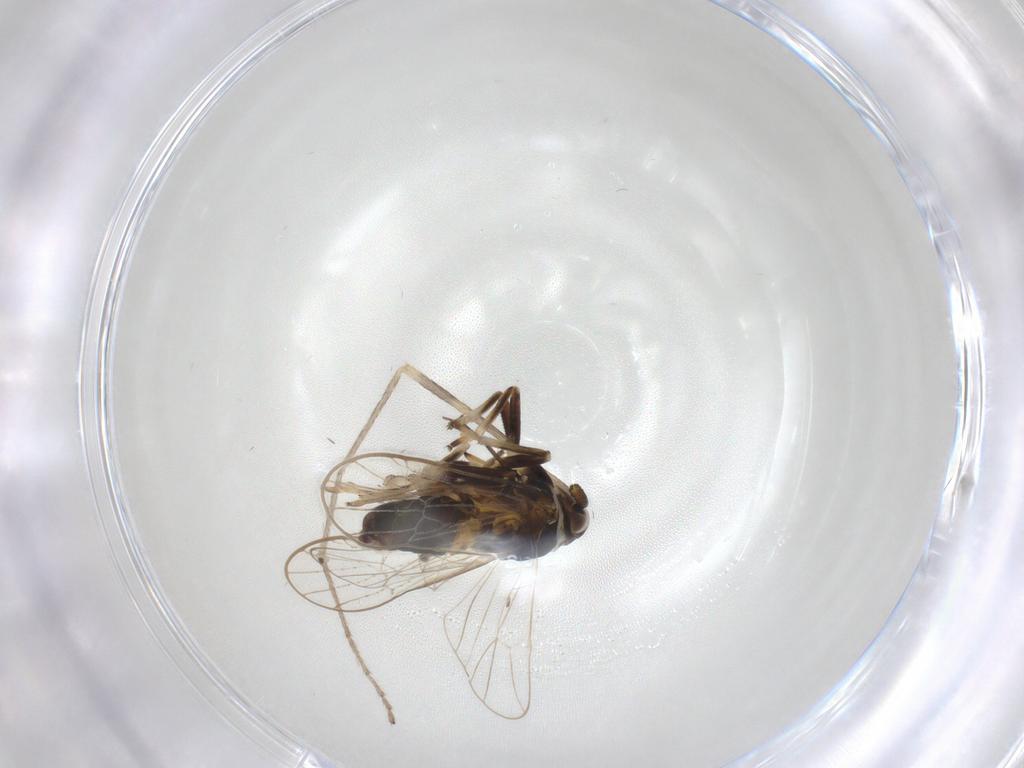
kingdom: Animalia
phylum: Arthropoda
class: Insecta
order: Hemiptera
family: Delphacidae
